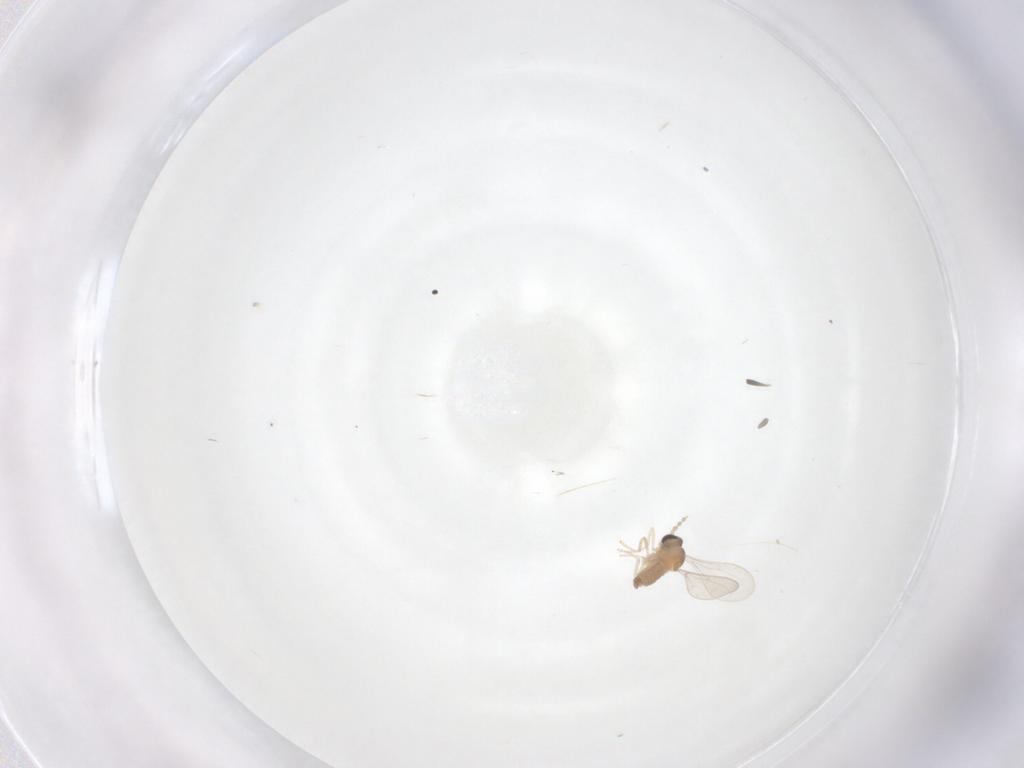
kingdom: Animalia
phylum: Arthropoda
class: Insecta
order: Diptera
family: Cecidomyiidae
